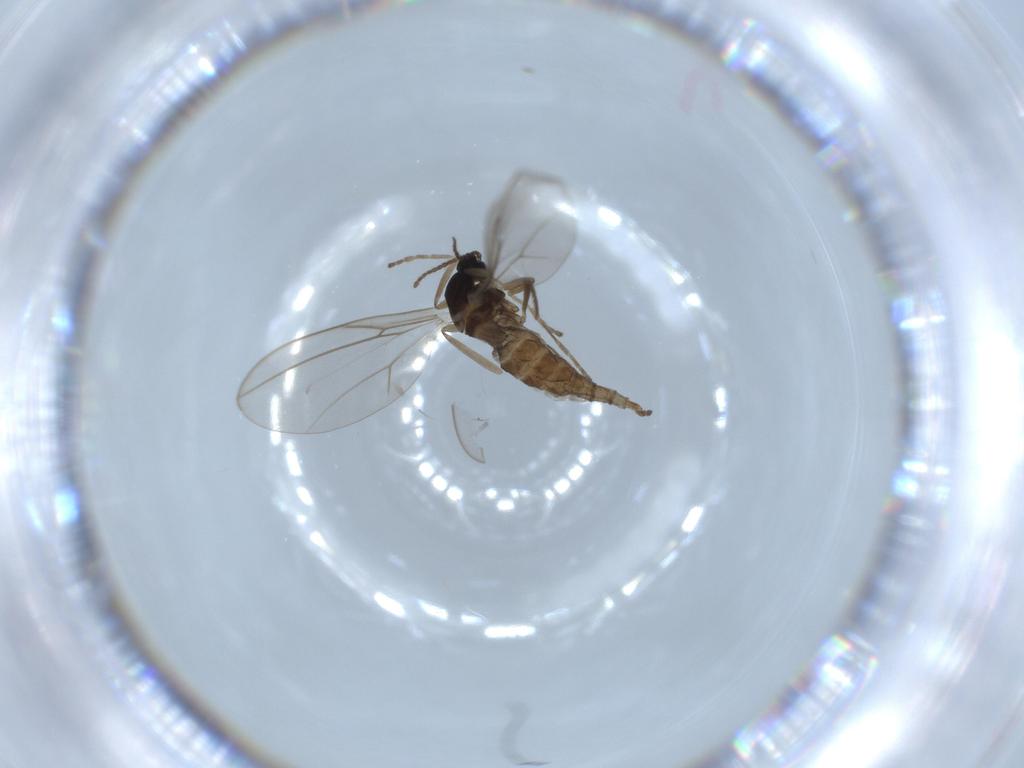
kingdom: Animalia
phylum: Arthropoda
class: Insecta
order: Diptera
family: Cecidomyiidae
